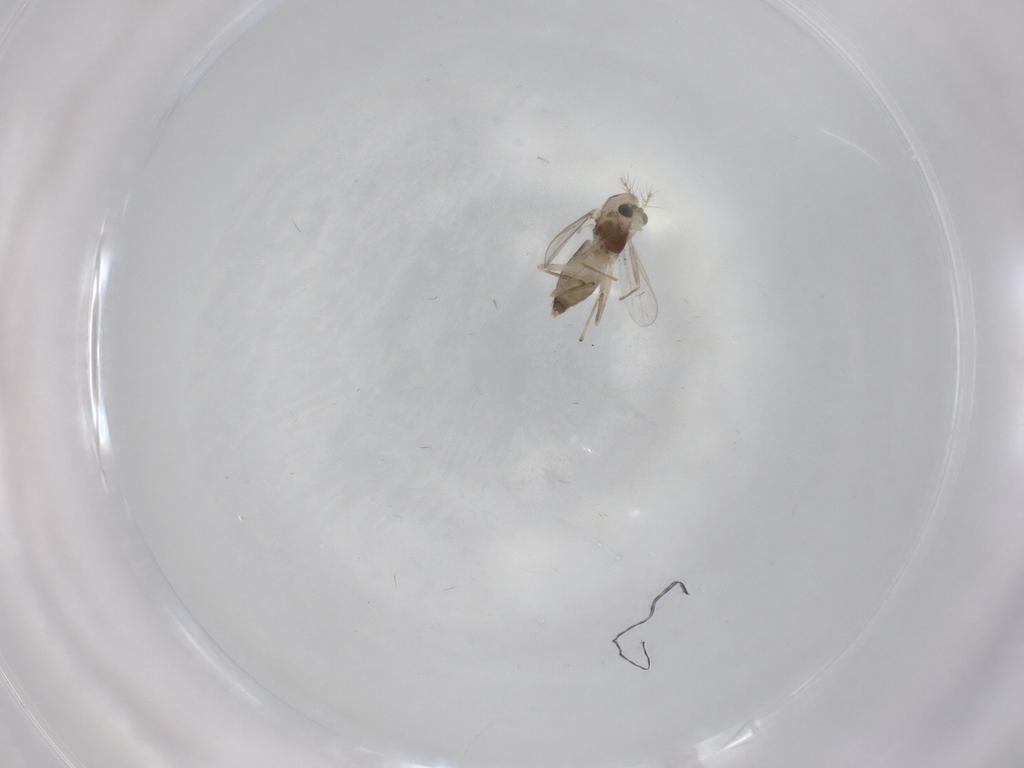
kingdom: Animalia
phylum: Arthropoda
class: Insecta
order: Diptera
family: Chironomidae
